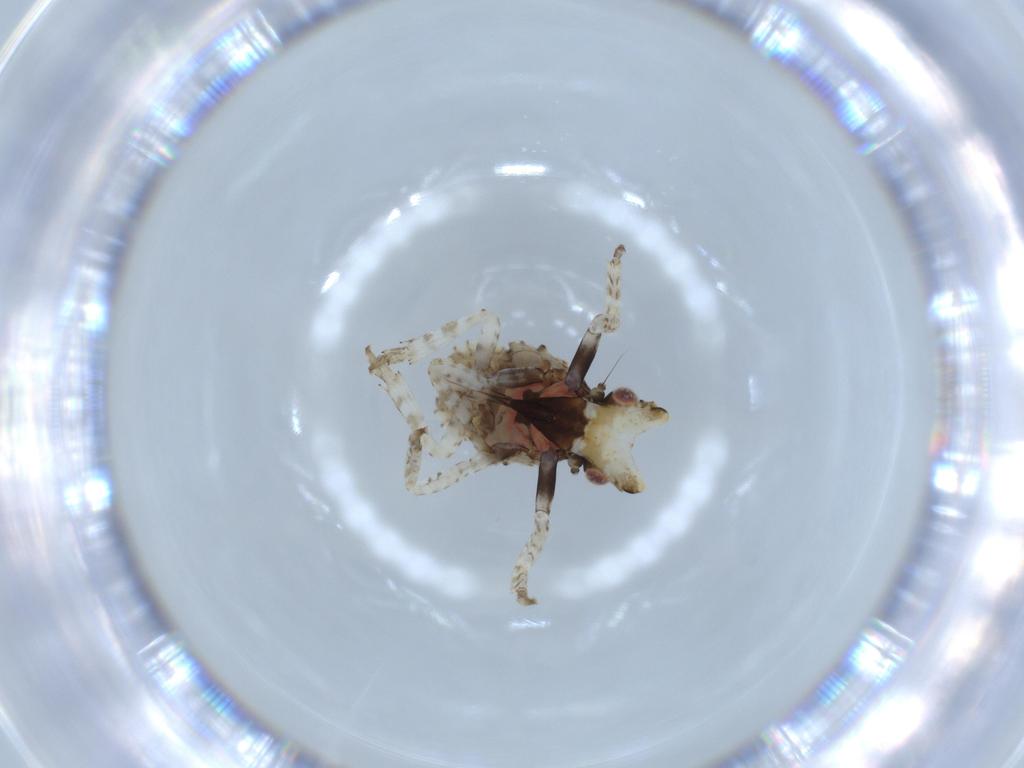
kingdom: Animalia
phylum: Arthropoda
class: Insecta
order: Hemiptera
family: Fulgoridae
